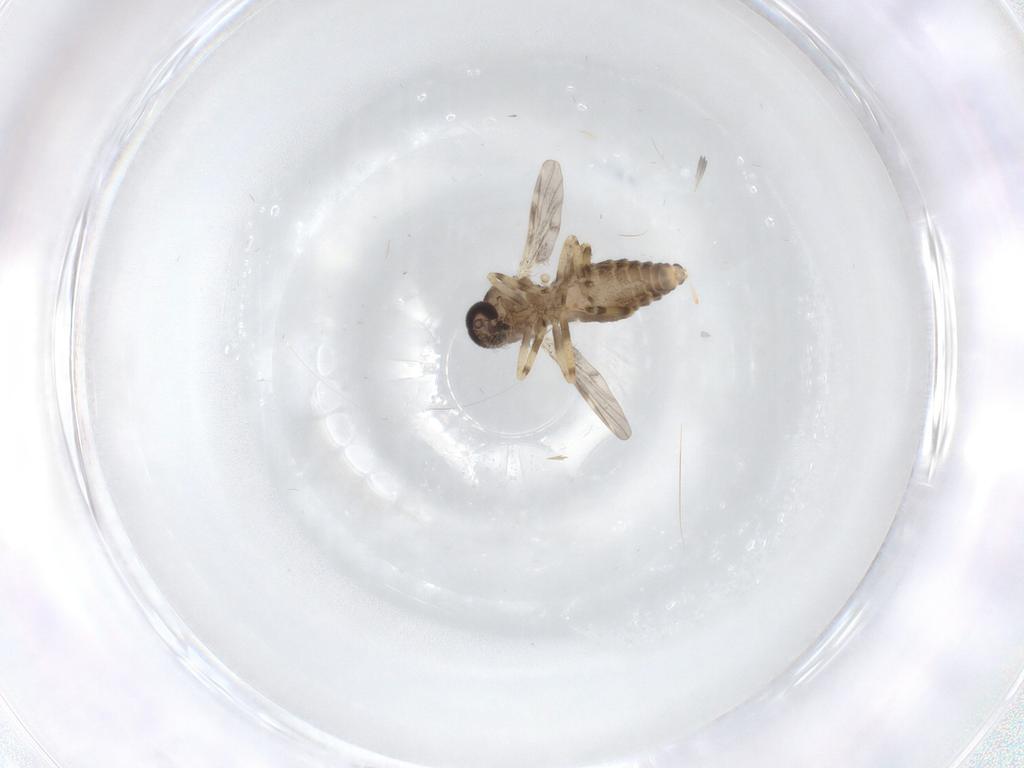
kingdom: Animalia
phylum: Arthropoda
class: Insecta
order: Diptera
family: Ceratopogonidae
